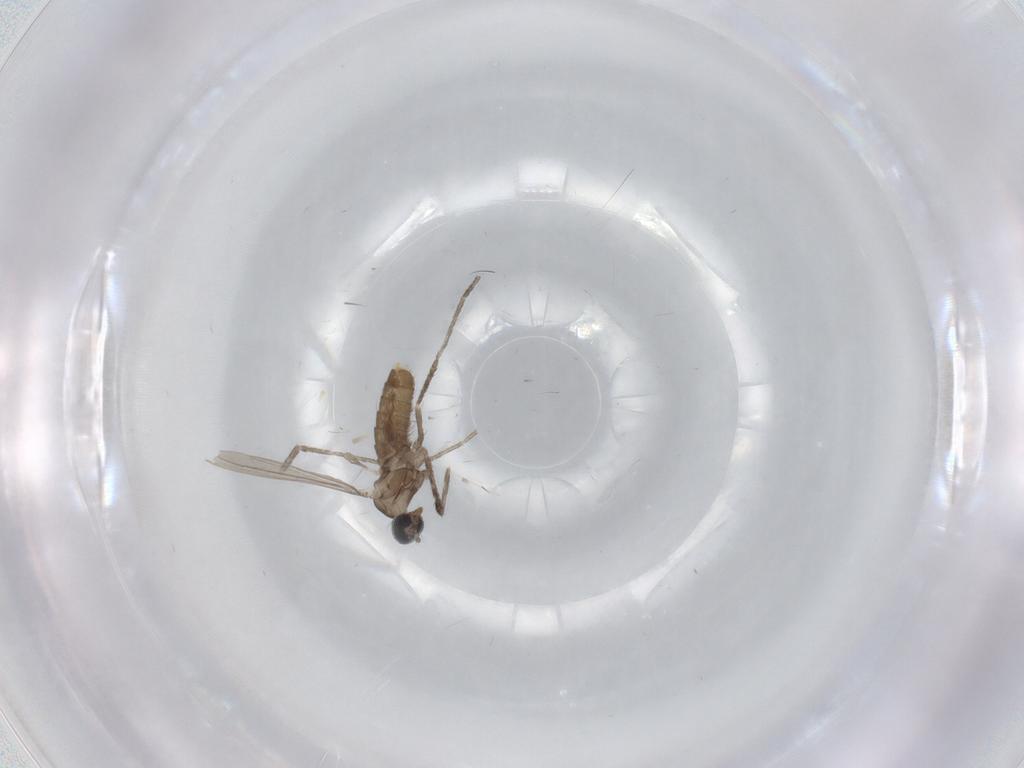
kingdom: Animalia
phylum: Arthropoda
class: Insecta
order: Diptera
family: Cecidomyiidae
